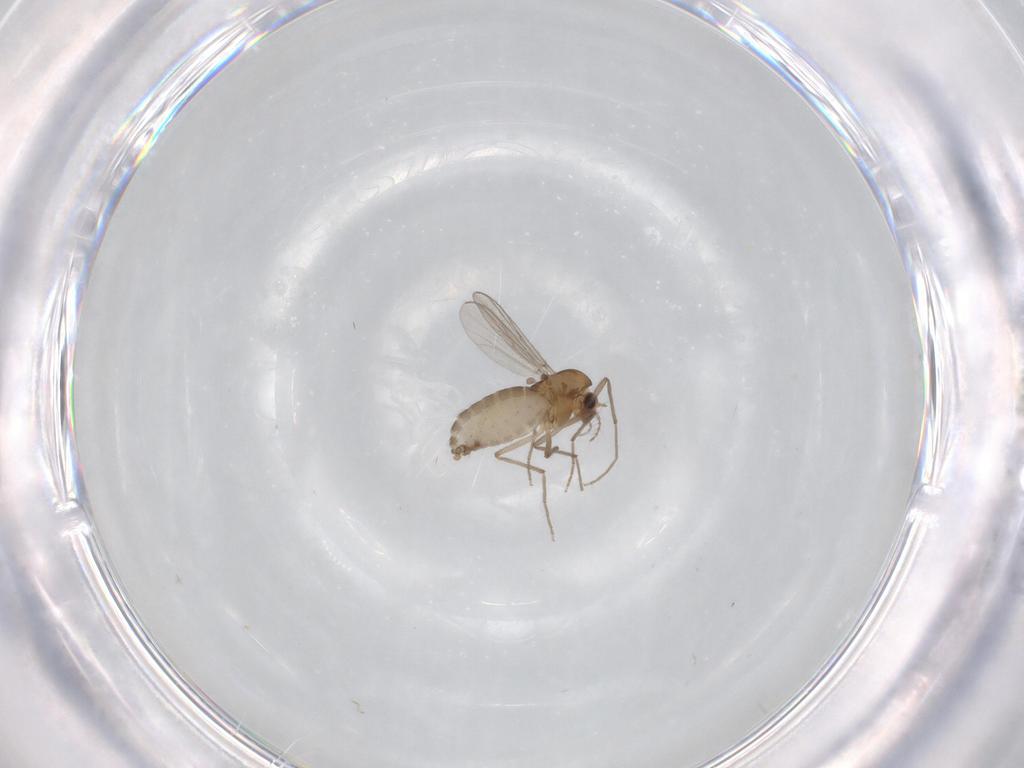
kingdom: Animalia
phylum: Arthropoda
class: Insecta
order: Diptera
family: Chironomidae
